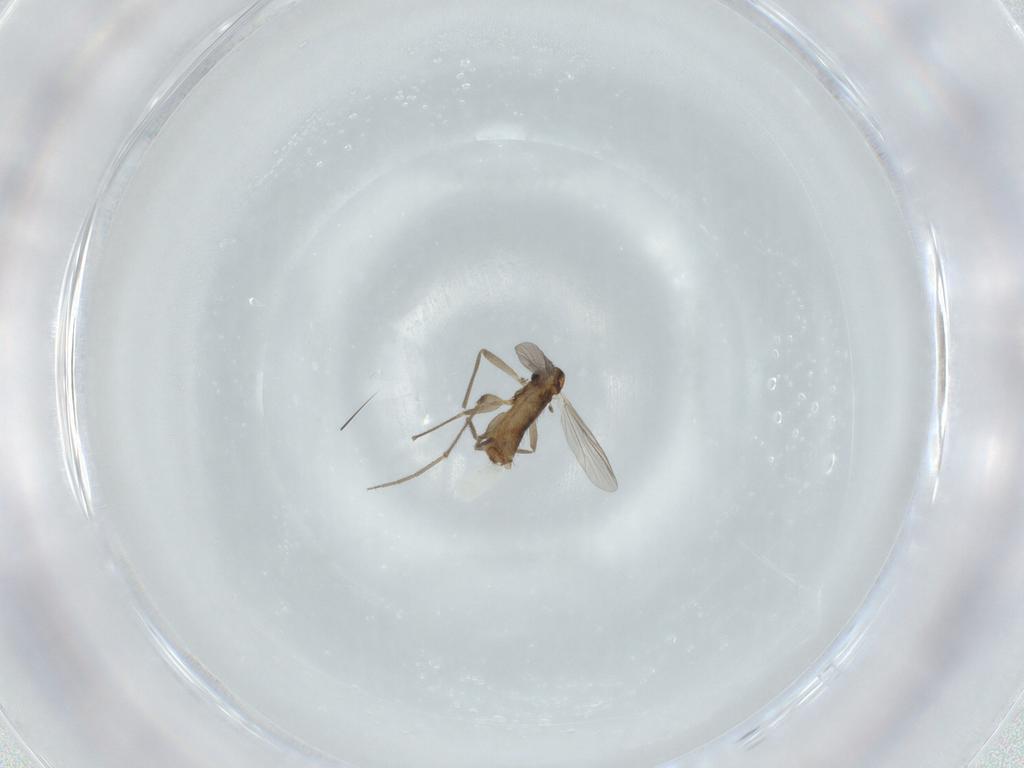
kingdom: Animalia
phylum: Arthropoda
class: Insecta
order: Diptera
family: Chironomidae
